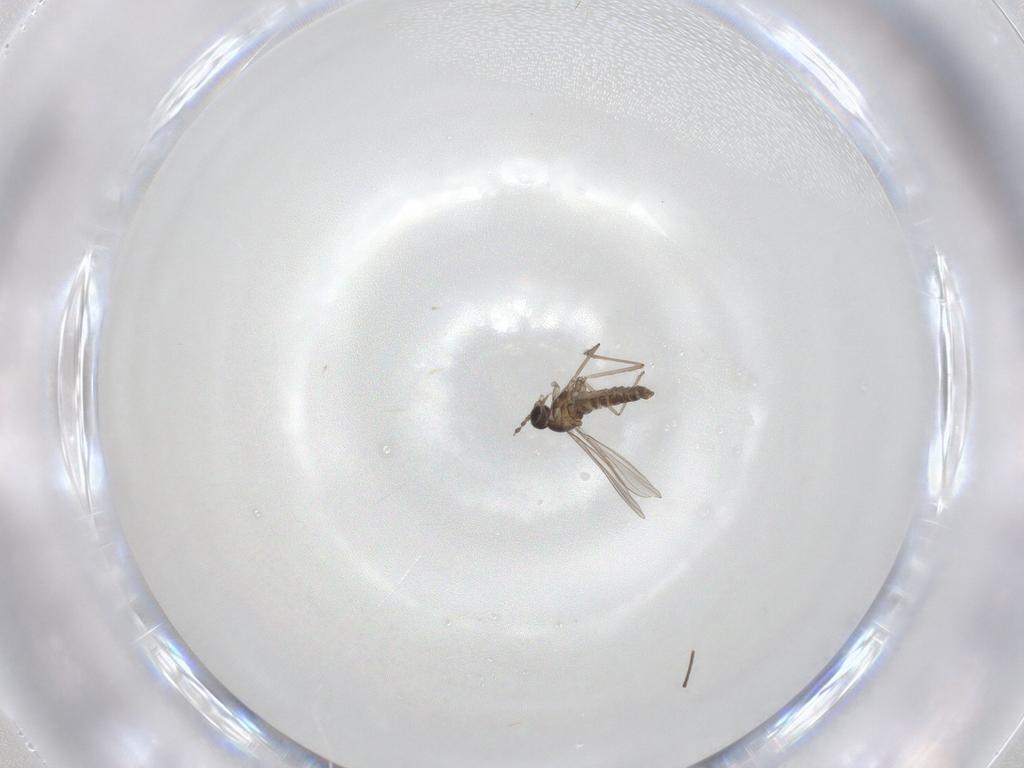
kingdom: Animalia
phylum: Arthropoda
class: Insecta
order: Diptera
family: Cecidomyiidae
